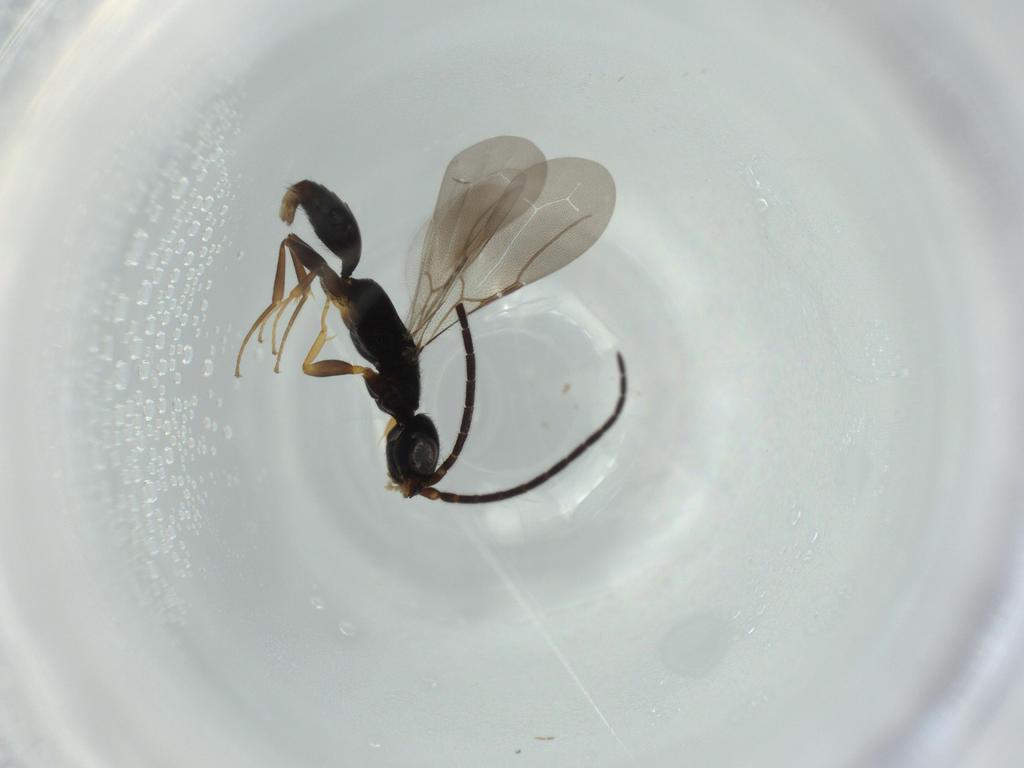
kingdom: Animalia
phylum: Arthropoda
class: Insecta
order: Hymenoptera
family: Bethylidae
